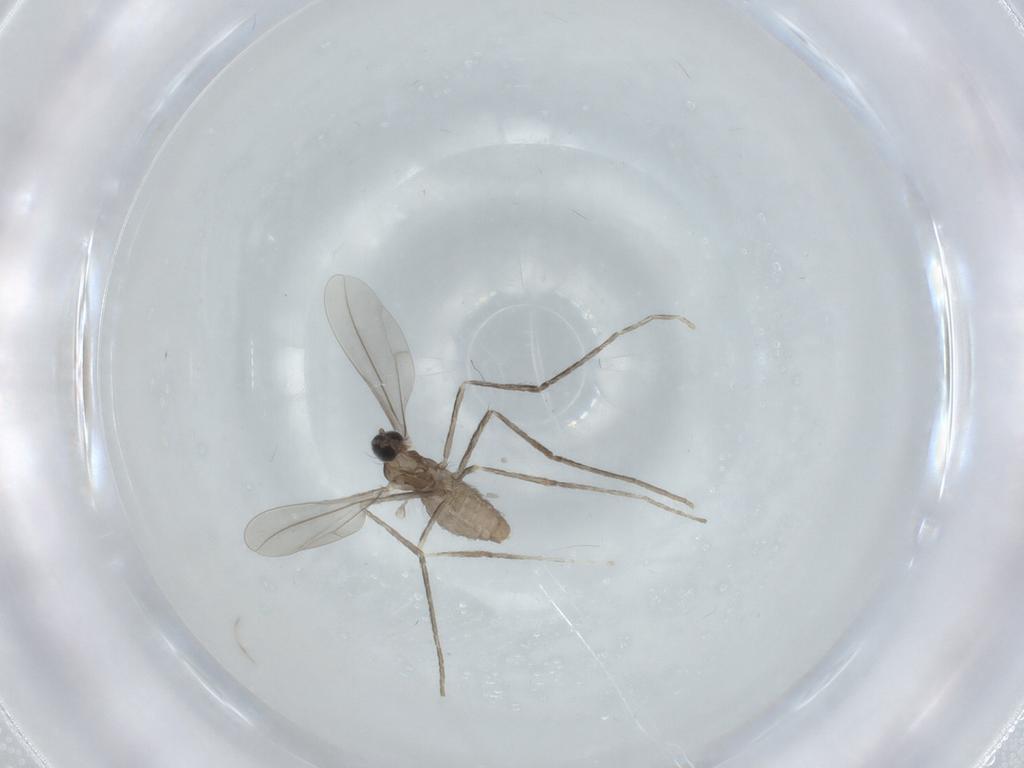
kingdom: Animalia
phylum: Arthropoda
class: Insecta
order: Diptera
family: Cecidomyiidae
